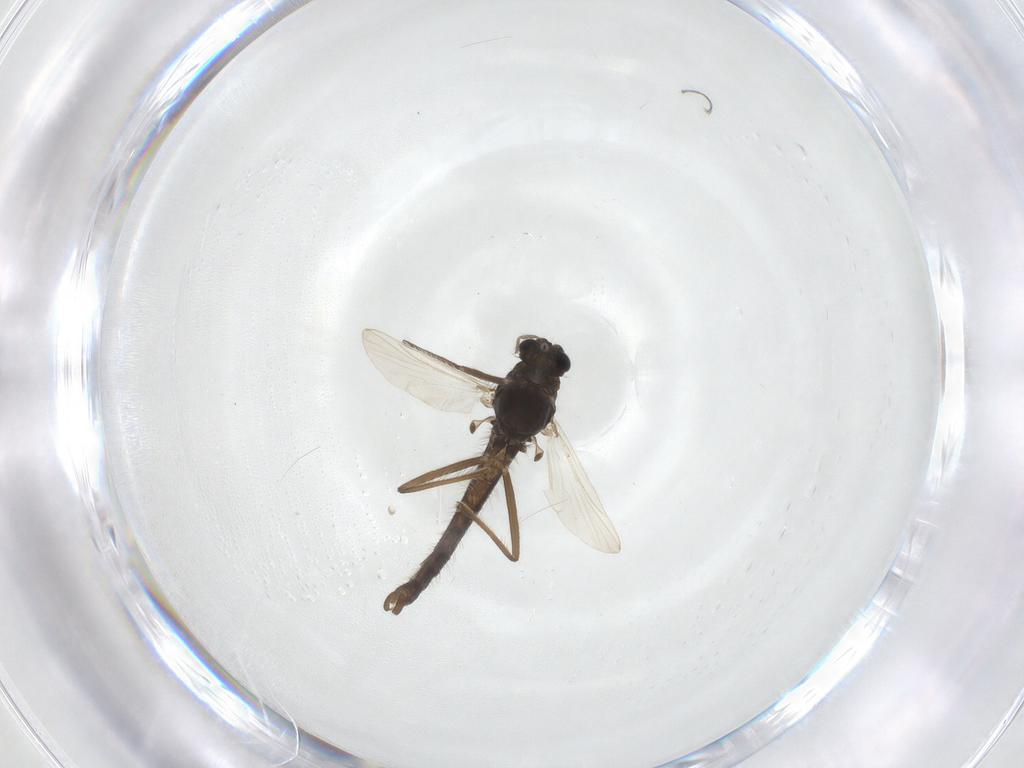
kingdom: Animalia
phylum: Arthropoda
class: Insecta
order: Diptera
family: Chironomidae
